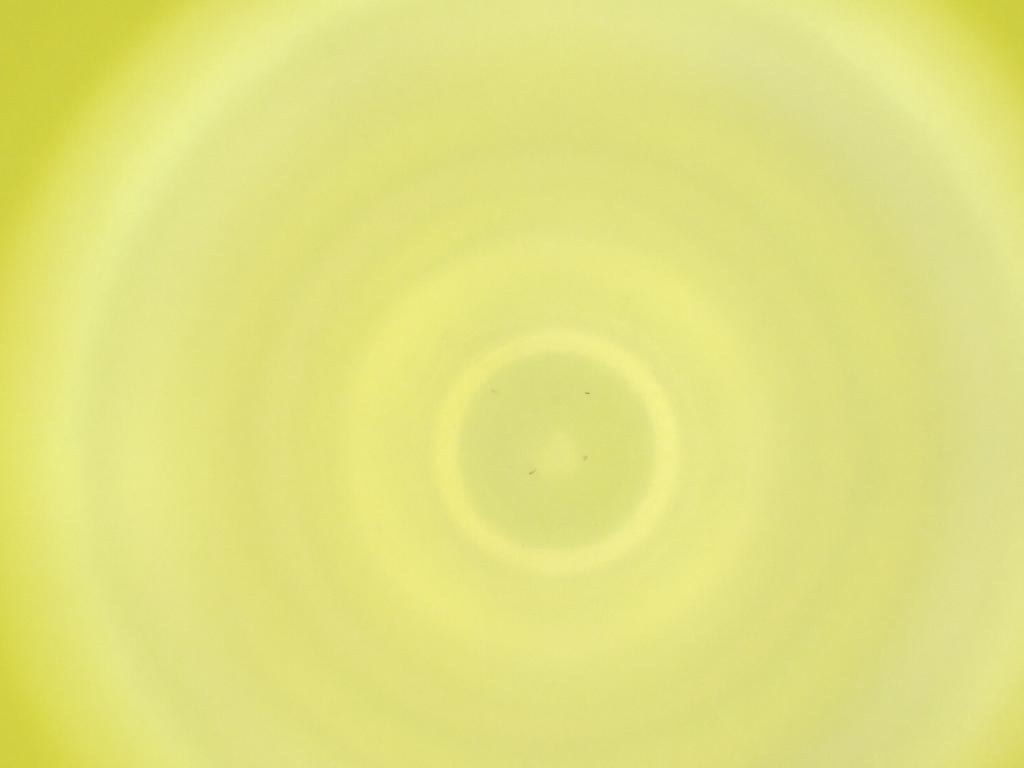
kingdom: Animalia
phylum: Arthropoda
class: Insecta
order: Diptera
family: Cecidomyiidae
